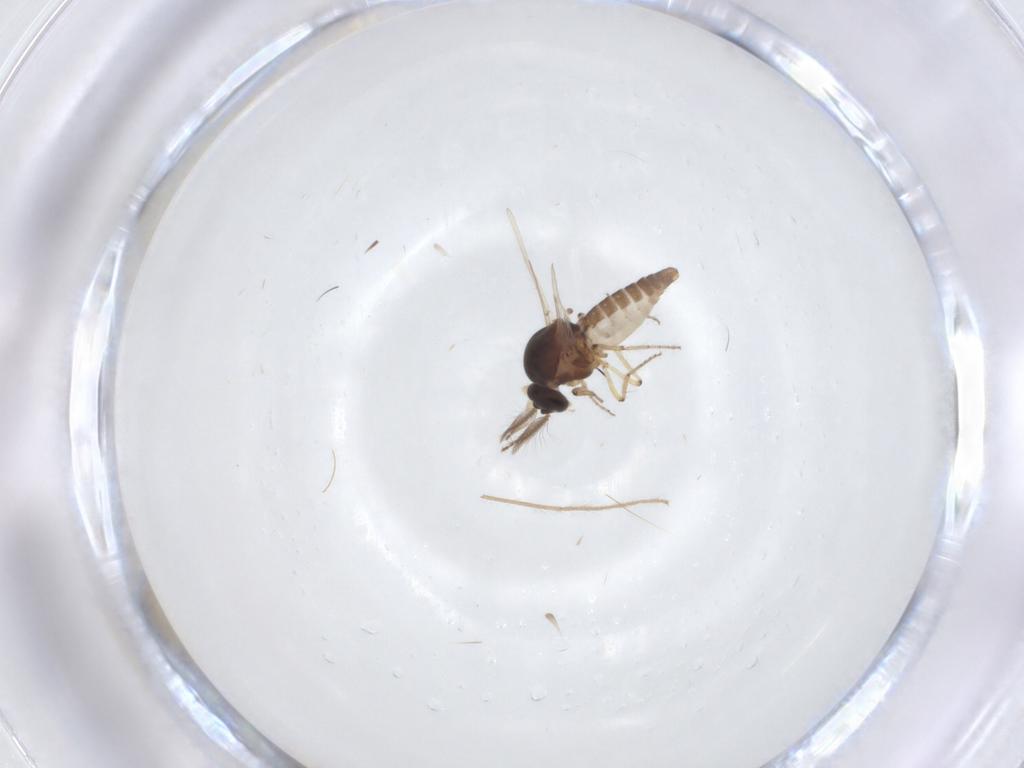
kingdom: Animalia
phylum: Arthropoda
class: Insecta
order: Diptera
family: Ceratopogonidae
